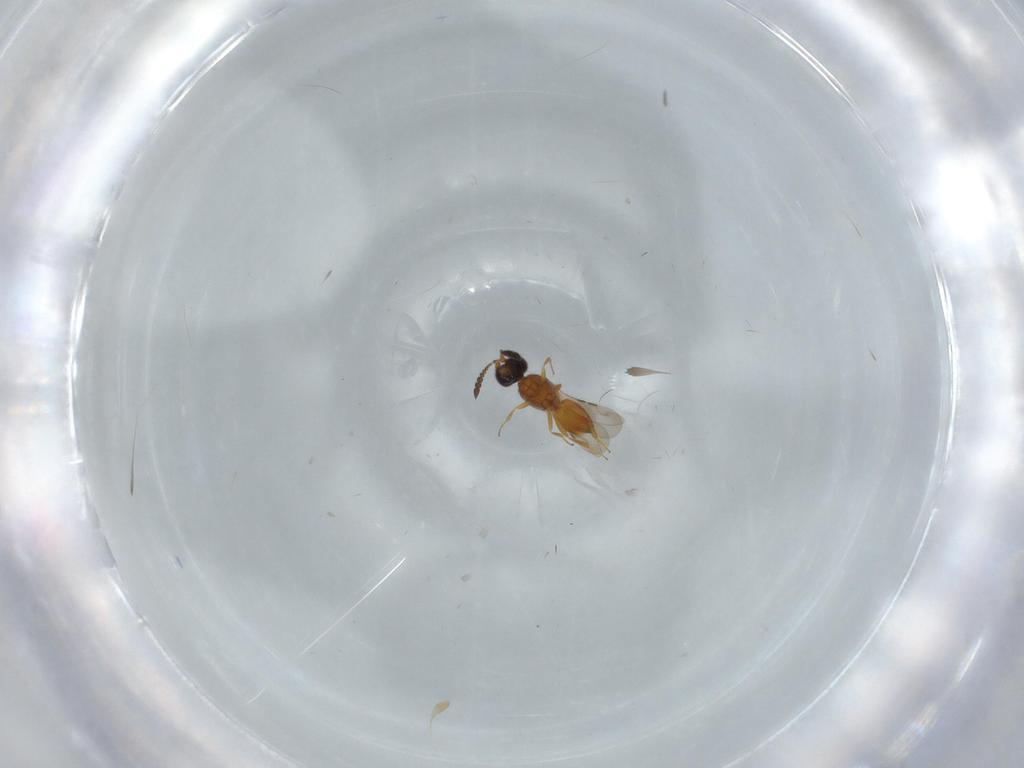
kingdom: Animalia
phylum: Arthropoda
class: Insecta
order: Hymenoptera
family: Ceraphronidae
